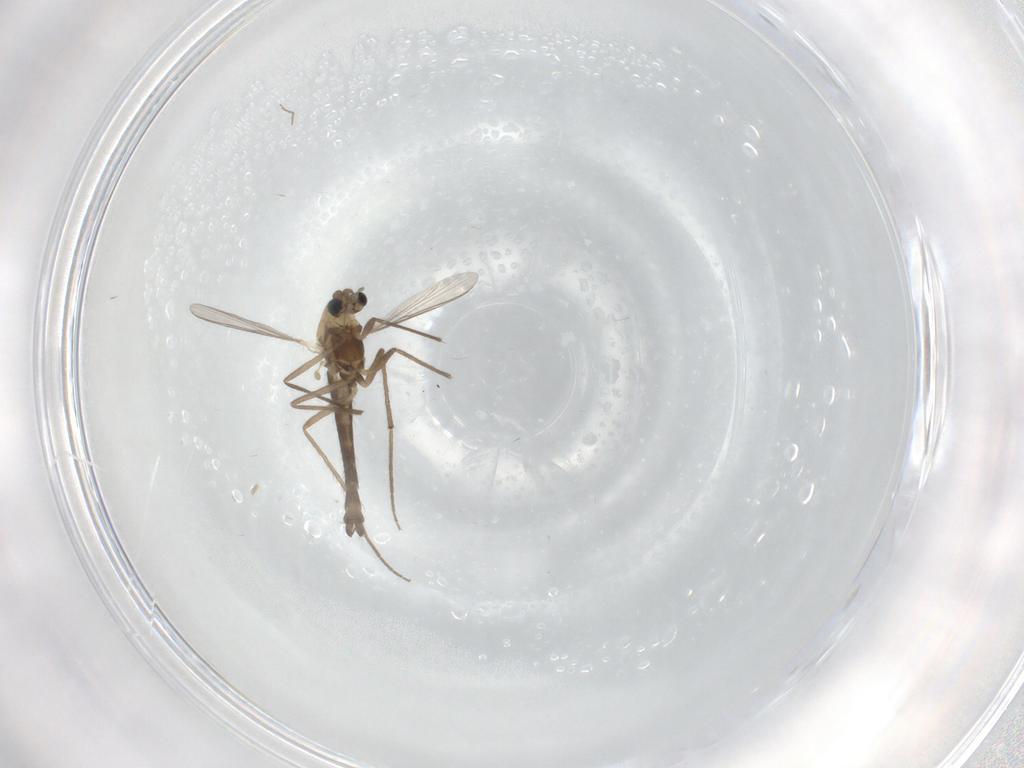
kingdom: Animalia
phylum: Arthropoda
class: Insecta
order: Diptera
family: Chironomidae
